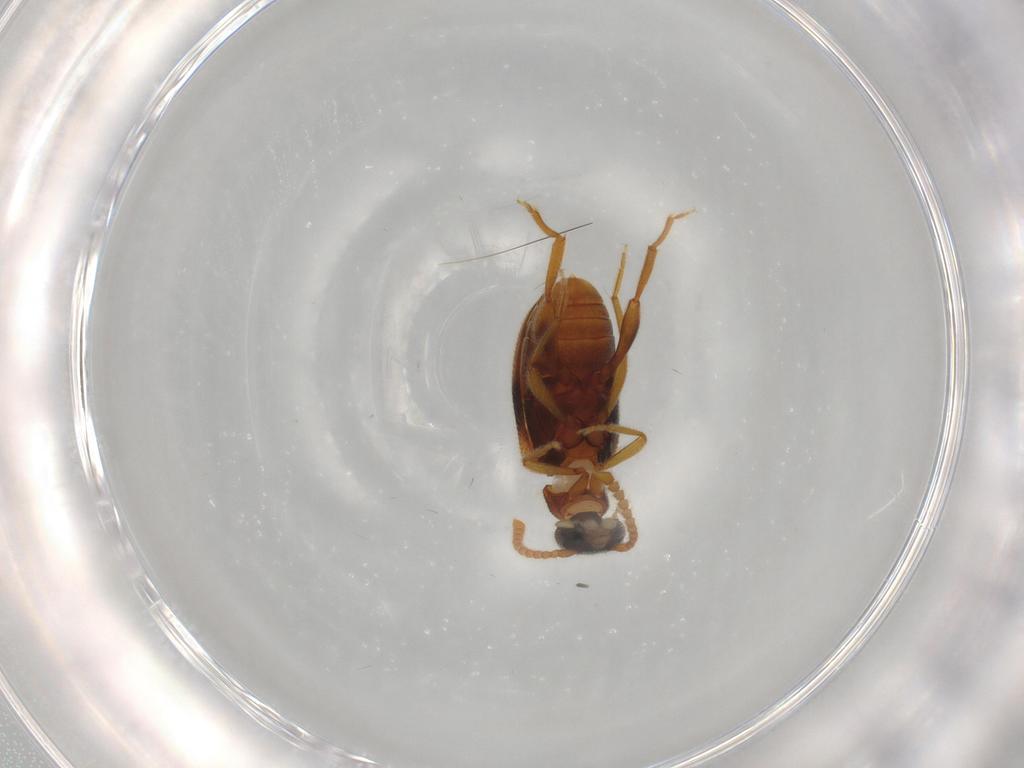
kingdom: Animalia
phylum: Arthropoda
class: Insecta
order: Coleoptera
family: Aderidae
